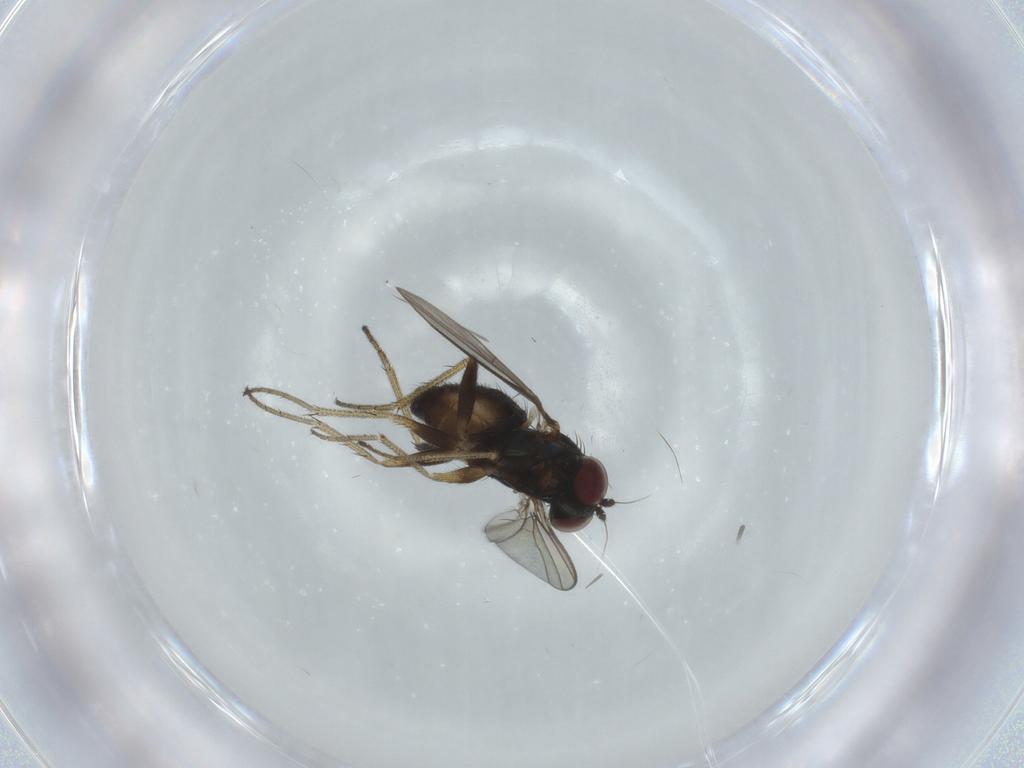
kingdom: Animalia
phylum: Arthropoda
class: Insecta
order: Diptera
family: Dolichopodidae
